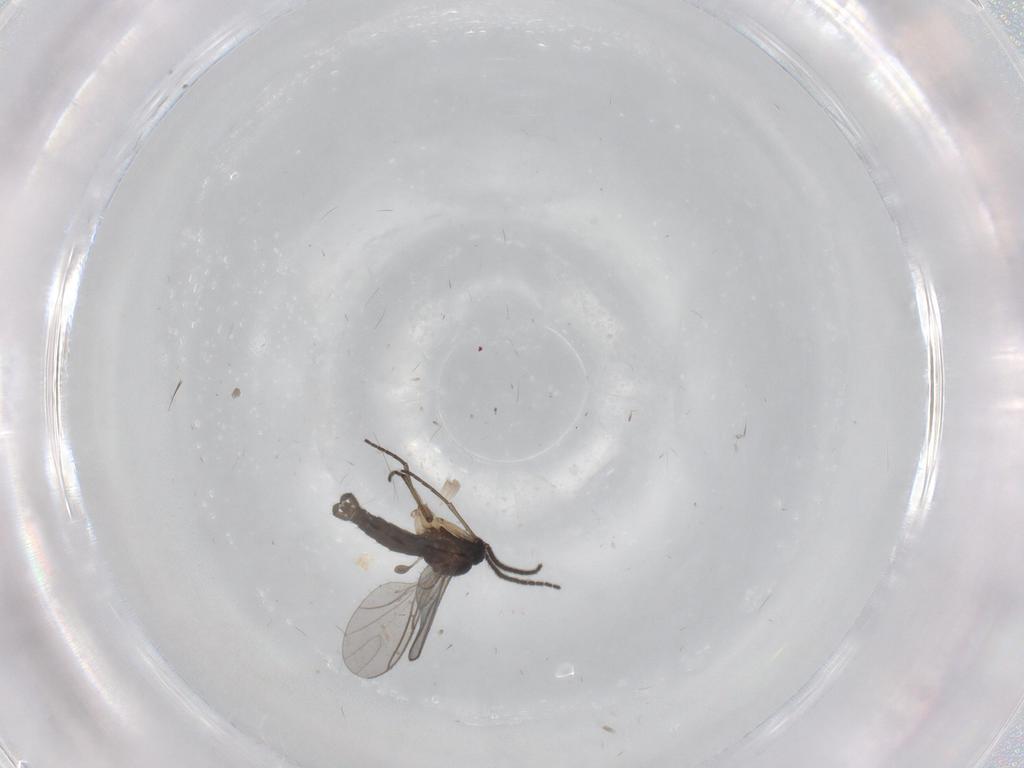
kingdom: Animalia
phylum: Arthropoda
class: Insecta
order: Diptera
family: Sciaridae
